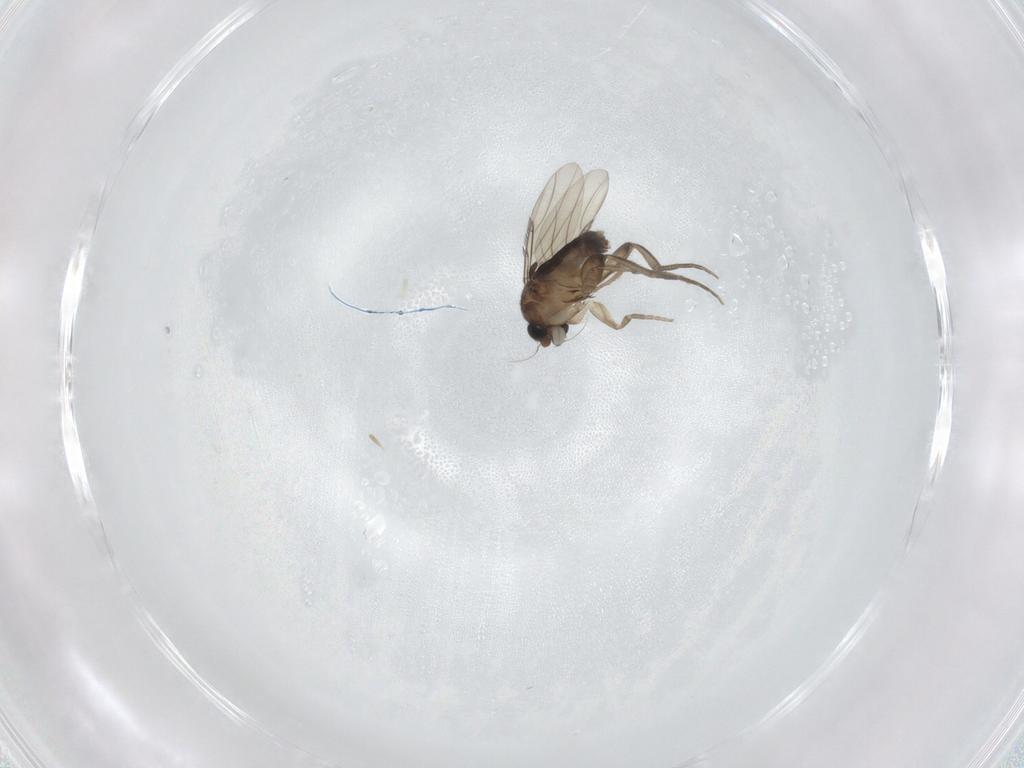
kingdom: Animalia
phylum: Arthropoda
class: Insecta
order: Diptera
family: Phoridae
